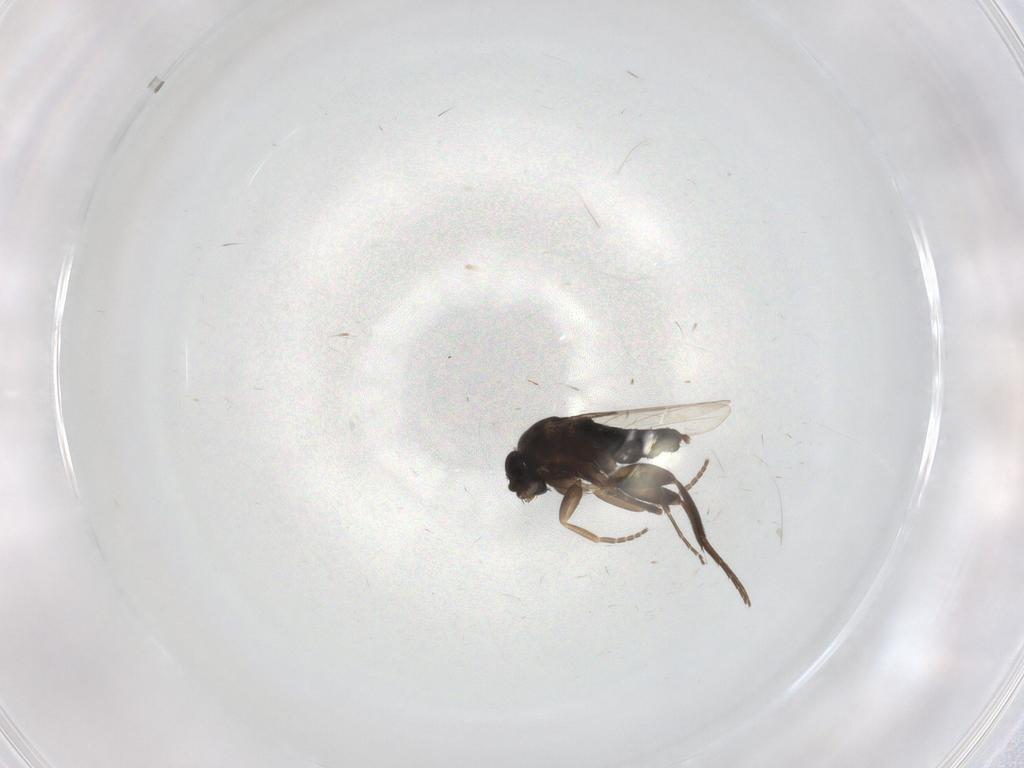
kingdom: Animalia
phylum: Arthropoda
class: Insecta
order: Diptera
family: Phoridae
